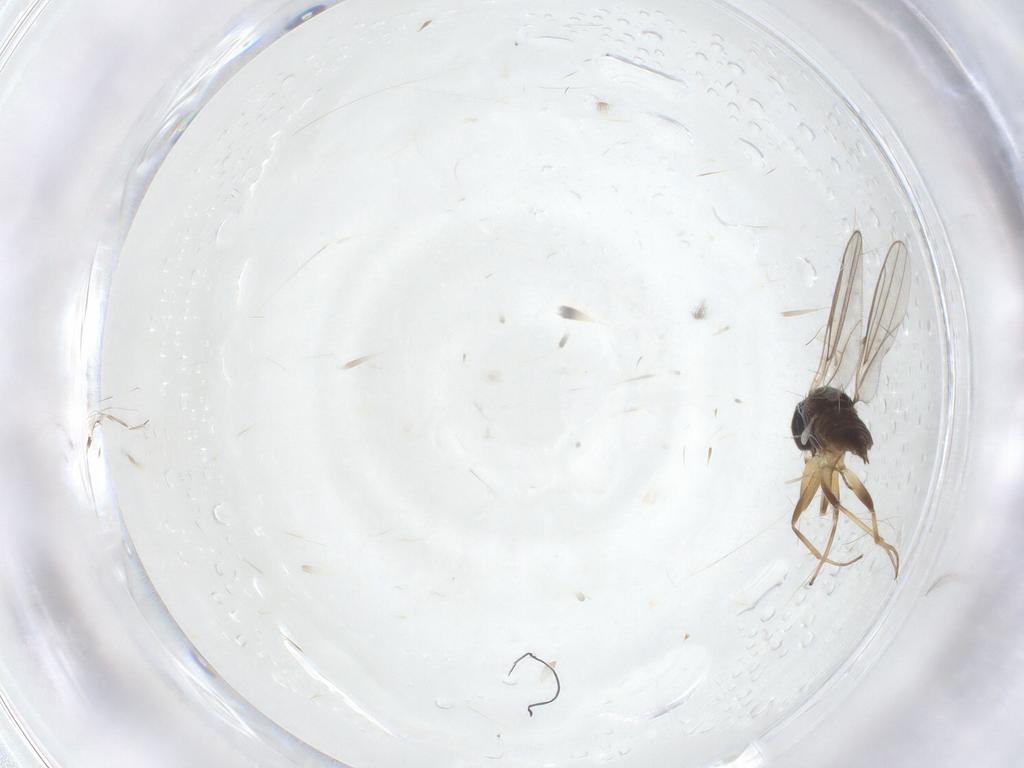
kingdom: Animalia
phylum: Arthropoda
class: Insecta
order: Diptera
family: Hybotidae
